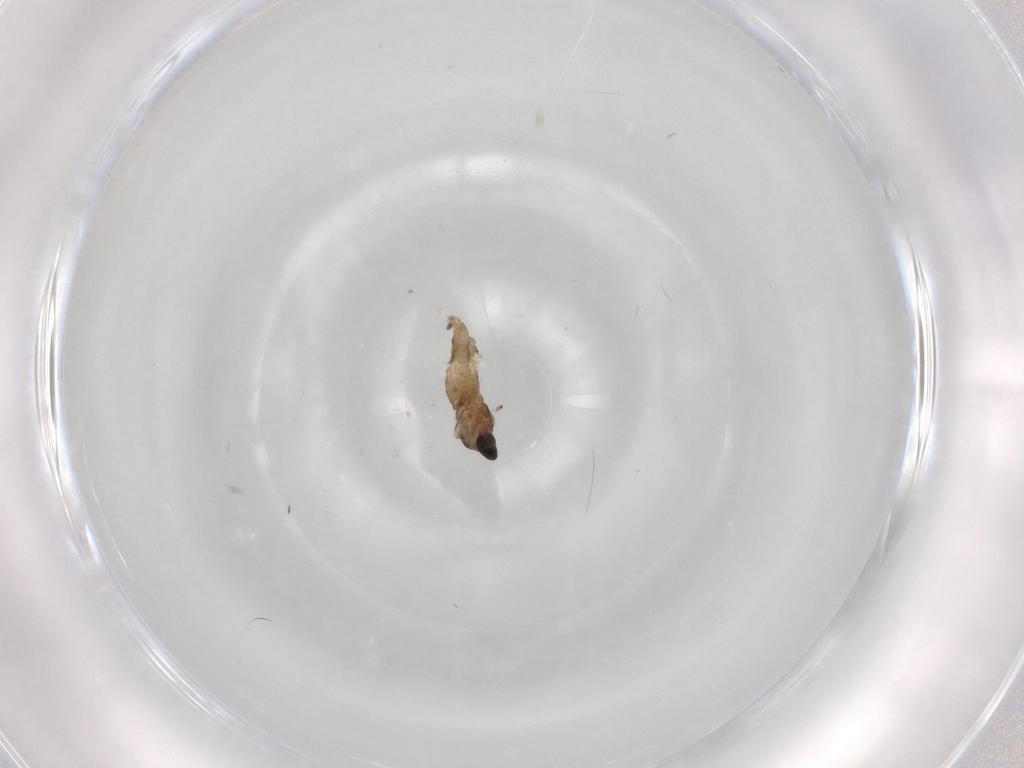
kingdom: Animalia
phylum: Arthropoda
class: Insecta
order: Diptera
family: Cecidomyiidae
